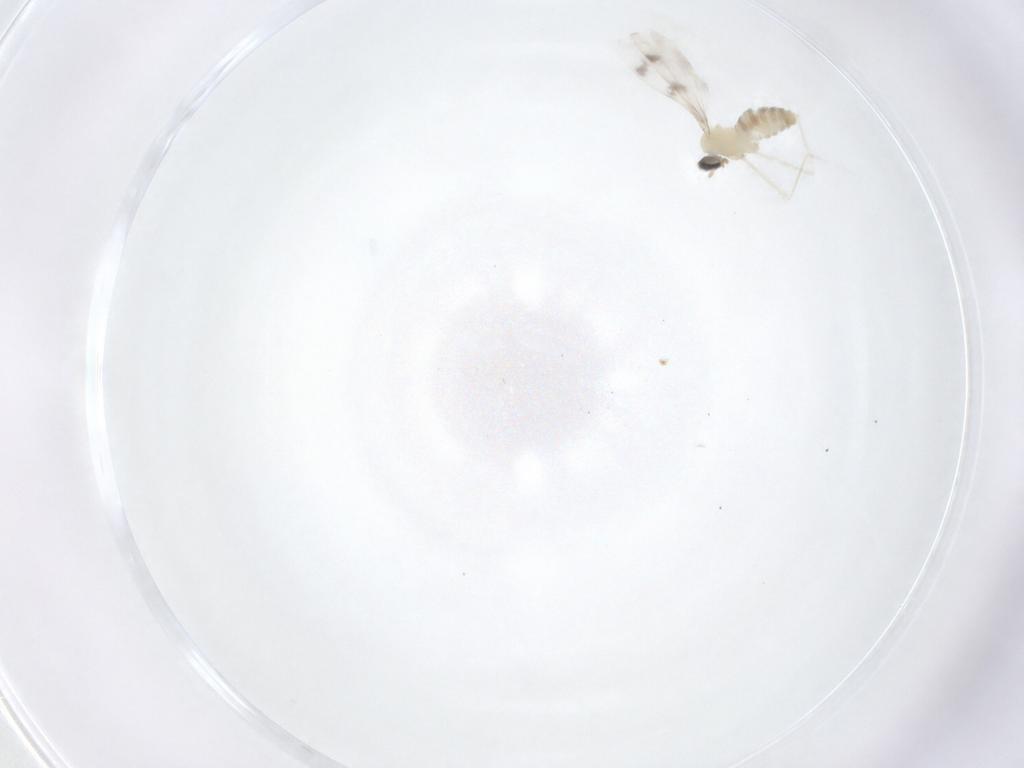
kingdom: Animalia
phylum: Arthropoda
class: Insecta
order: Diptera
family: Cecidomyiidae
